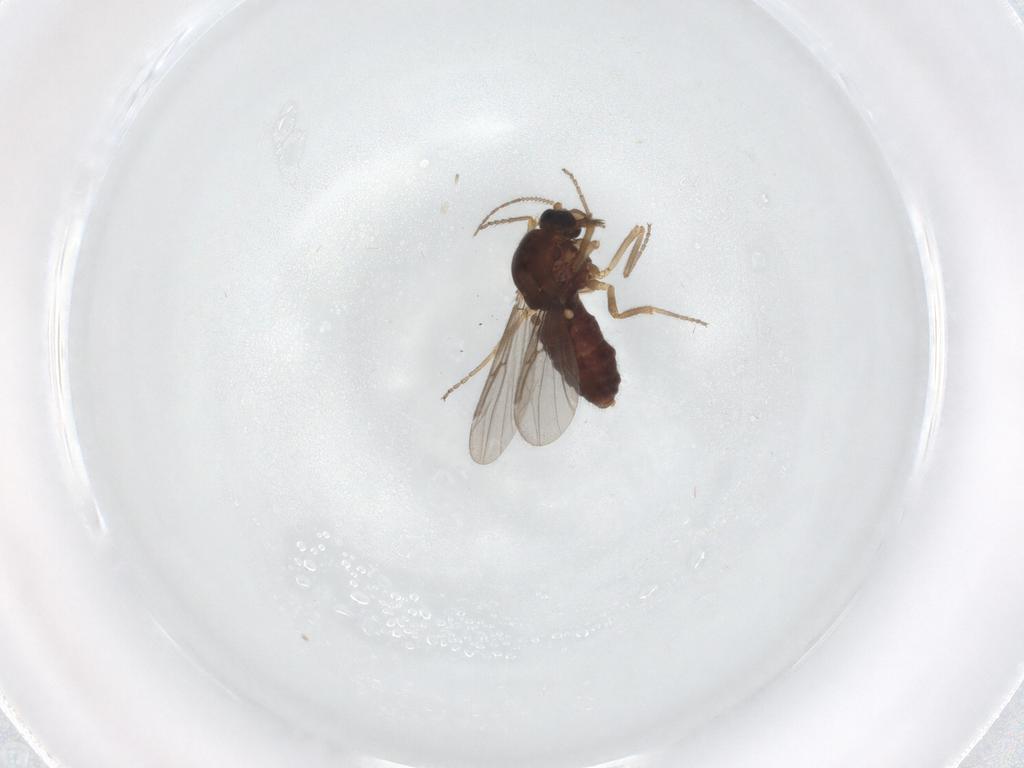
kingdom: Animalia
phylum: Arthropoda
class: Insecta
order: Diptera
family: Ceratopogonidae
